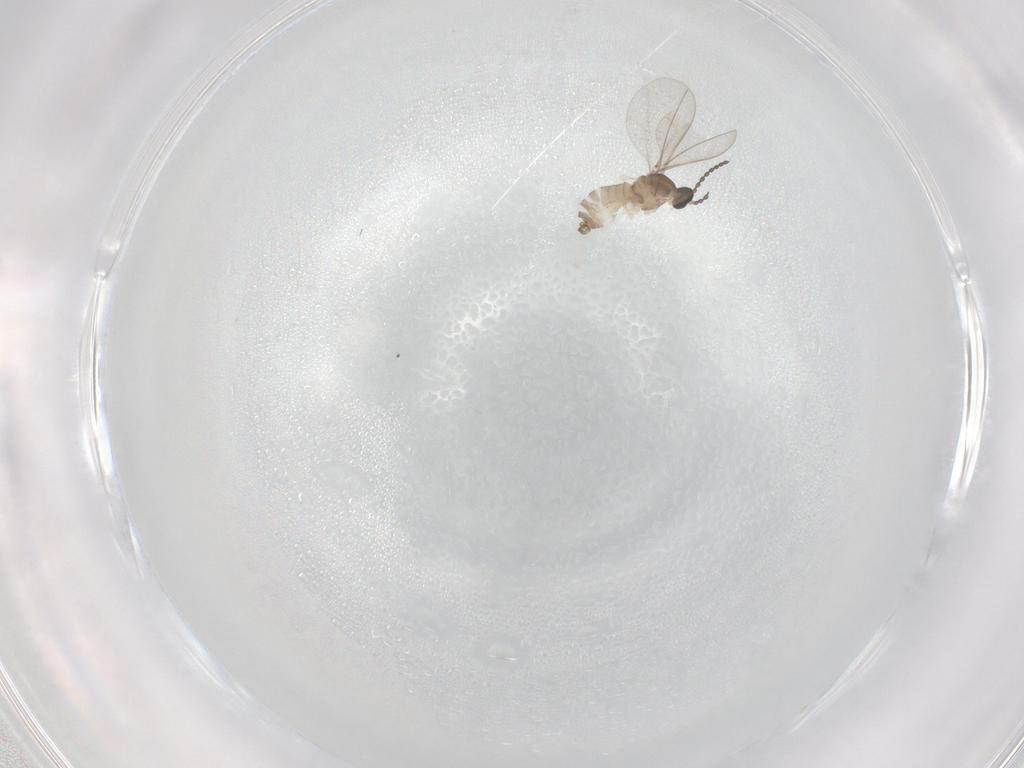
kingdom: Animalia
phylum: Arthropoda
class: Insecta
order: Diptera
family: Cecidomyiidae
